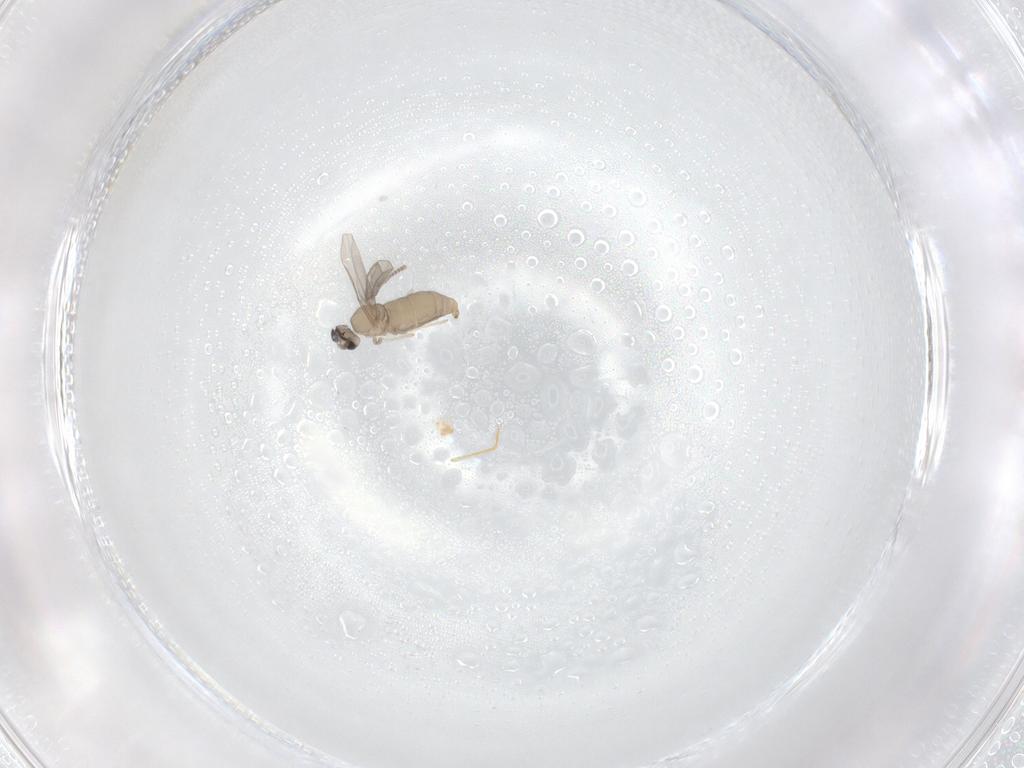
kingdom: Animalia
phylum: Arthropoda
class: Insecta
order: Diptera
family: Cecidomyiidae
